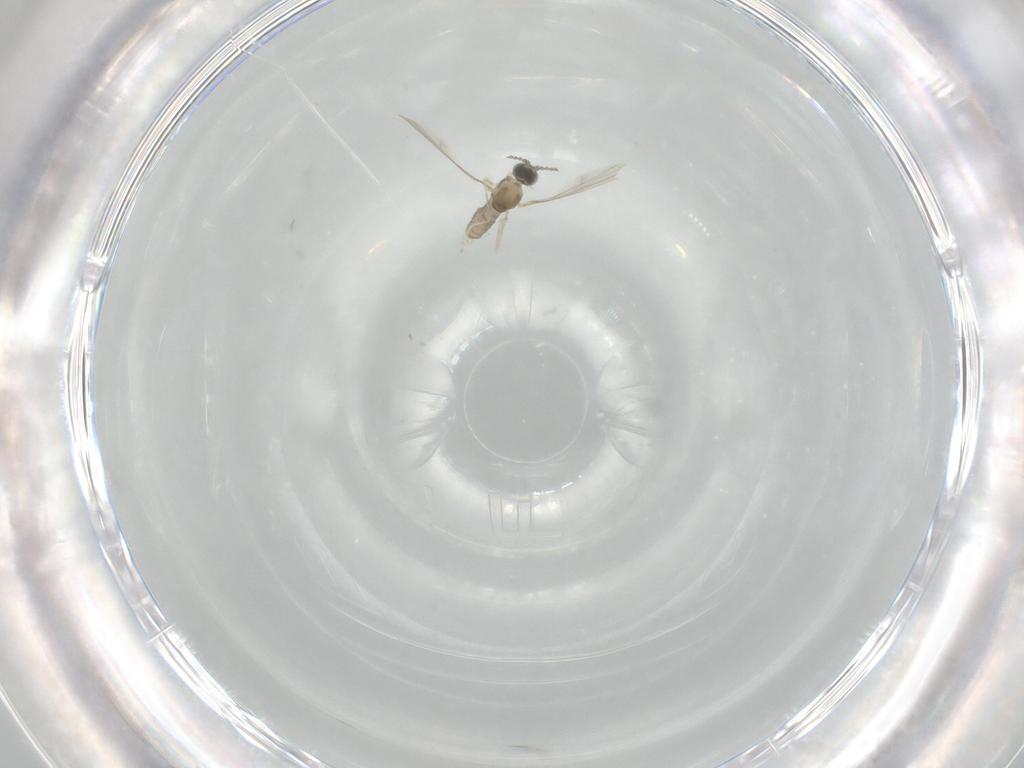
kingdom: Animalia
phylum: Arthropoda
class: Insecta
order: Diptera
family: Cecidomyiidae
